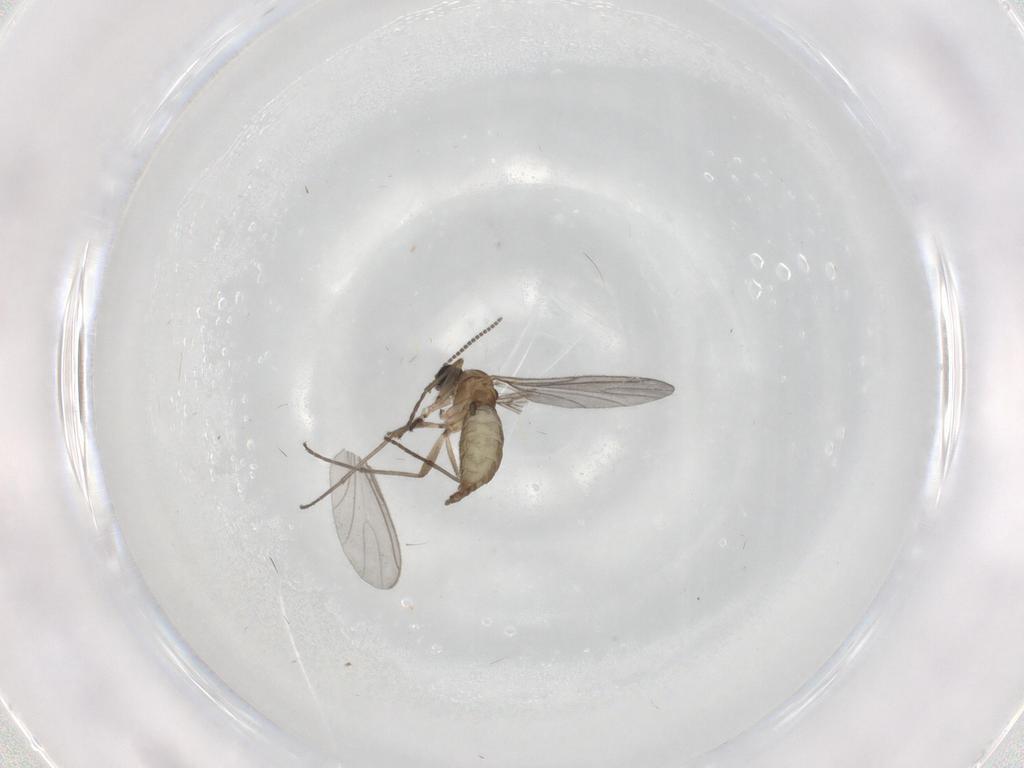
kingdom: Animalia
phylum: Arthropoda
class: Insecta
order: Diptera
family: Sciaridae
